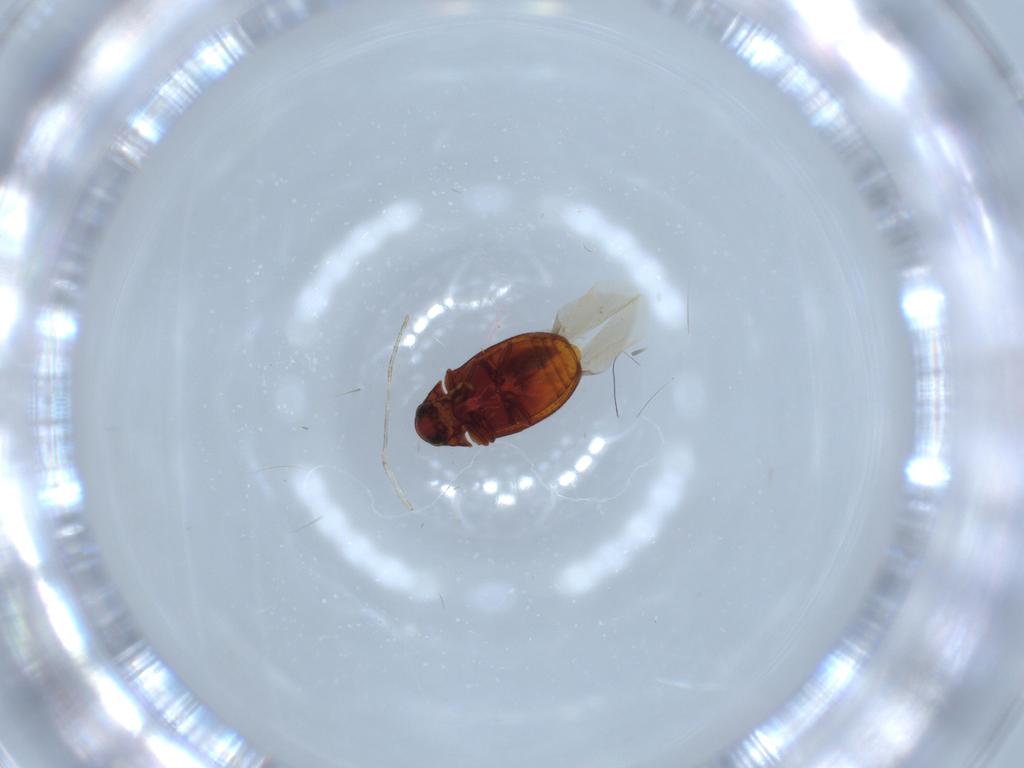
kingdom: Animalia
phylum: Arthropoda
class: Insecta
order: Coleoptera
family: Ptinidae
